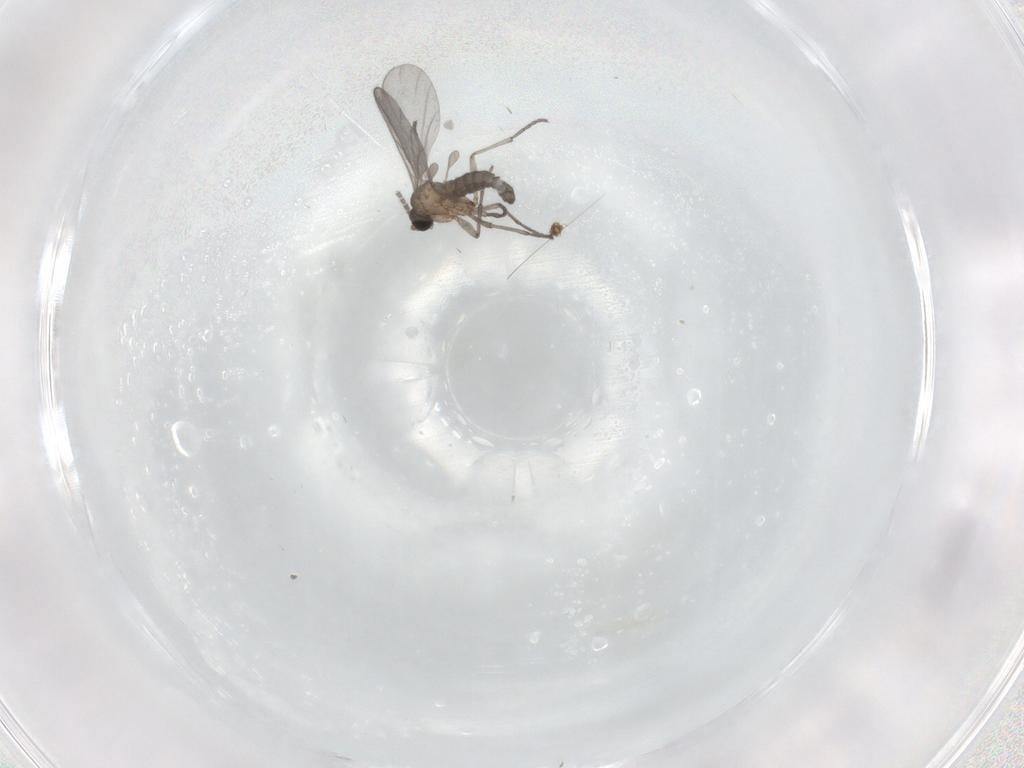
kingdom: Animalia
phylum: Arthropoda
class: Insecta
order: Diptera
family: Sciaridae
